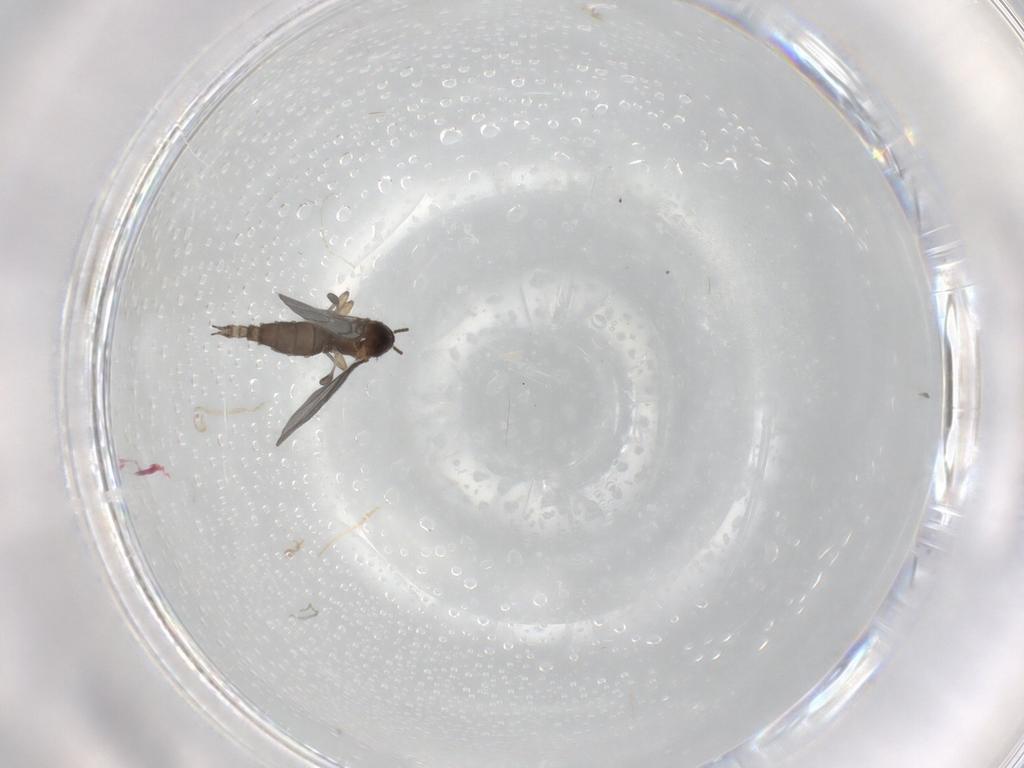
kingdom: Animalia
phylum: Arthropoda
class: Insecta
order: Diptera
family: Sciaridae
